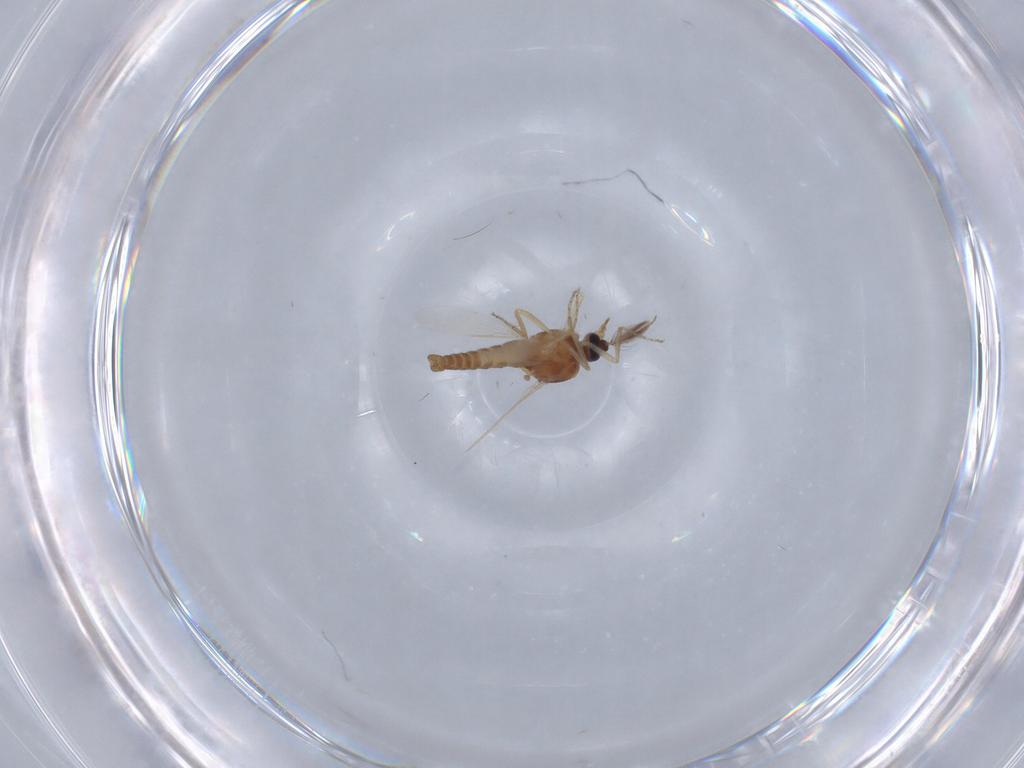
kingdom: Animalia
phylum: Arthropoda
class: Insecta
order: Diptera
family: Ceratopogonidae
